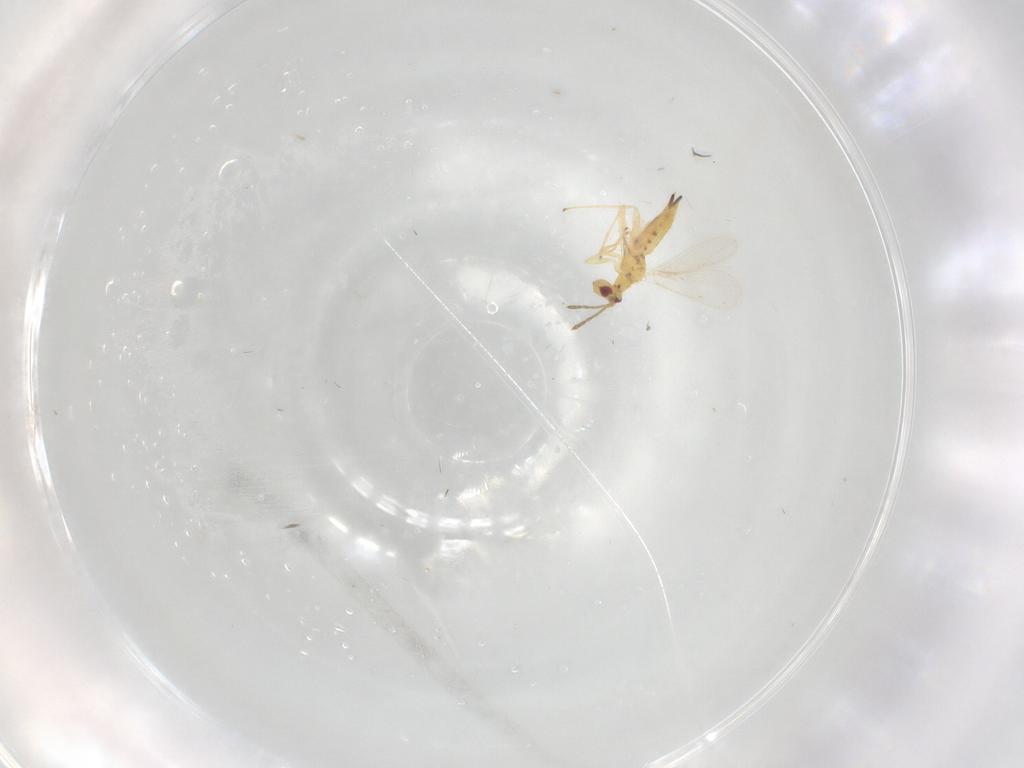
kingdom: Animalia
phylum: Arthropoda
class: Insecta
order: Hymenoptera
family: Eulophidae
